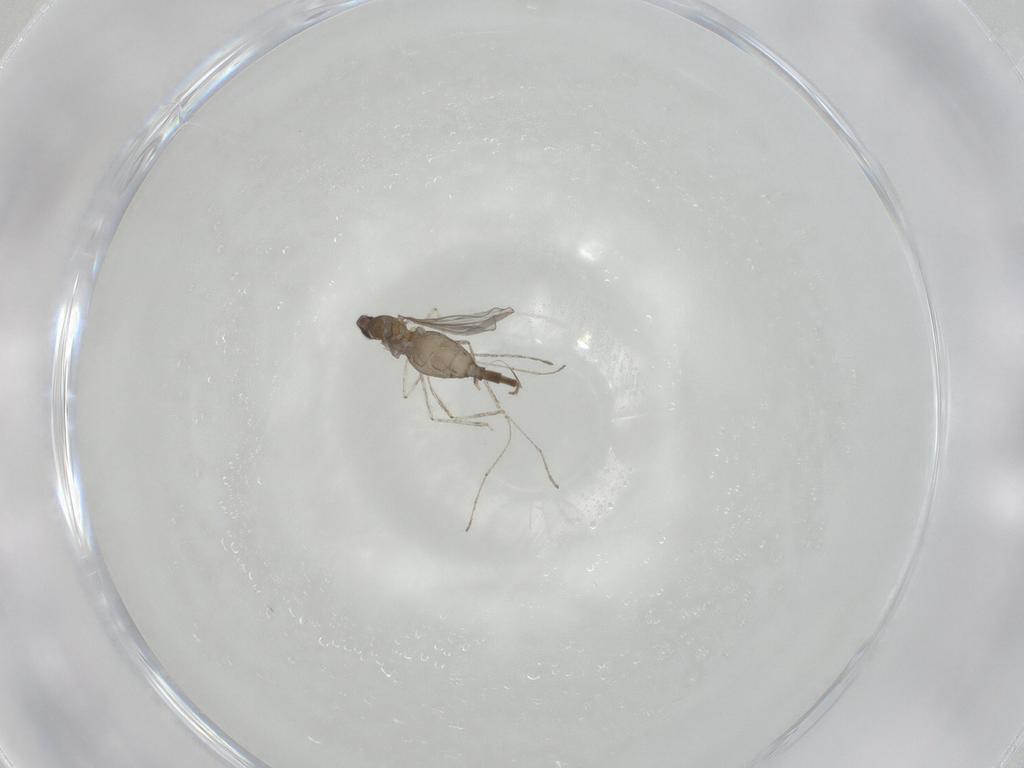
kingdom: Animalia
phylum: Arthropoda
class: Insecta
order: Diptera
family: Cecidomyiidae
